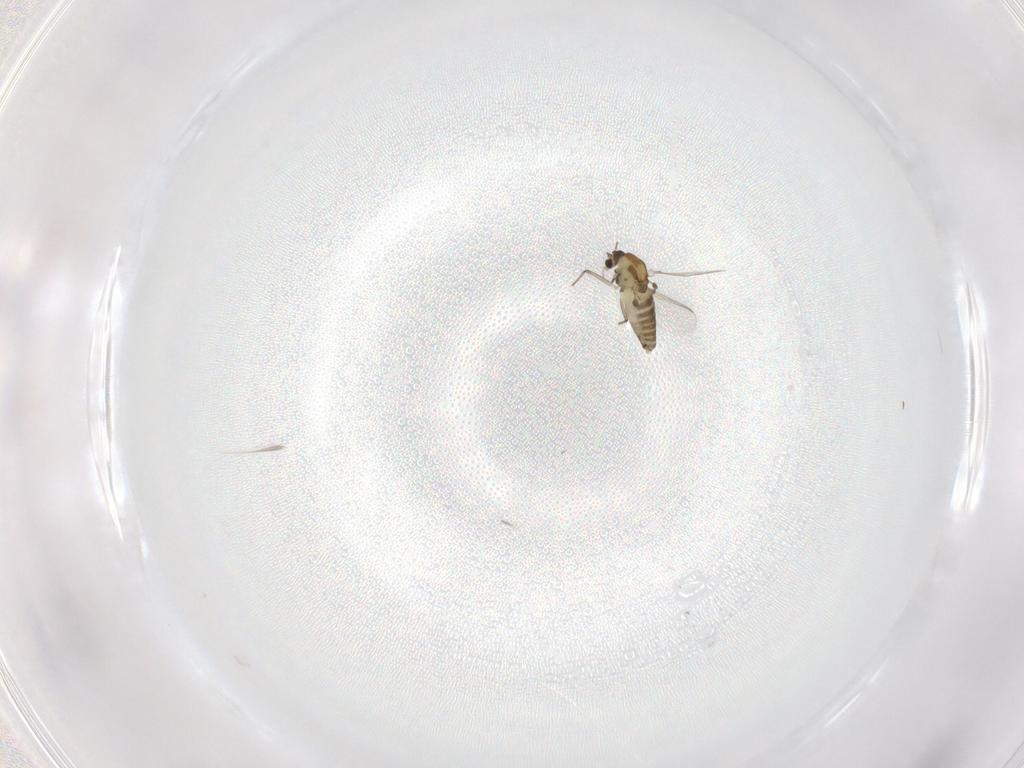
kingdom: Animalia
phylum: Arthropoda
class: Insecta
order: Diptera
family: Chironomidae
